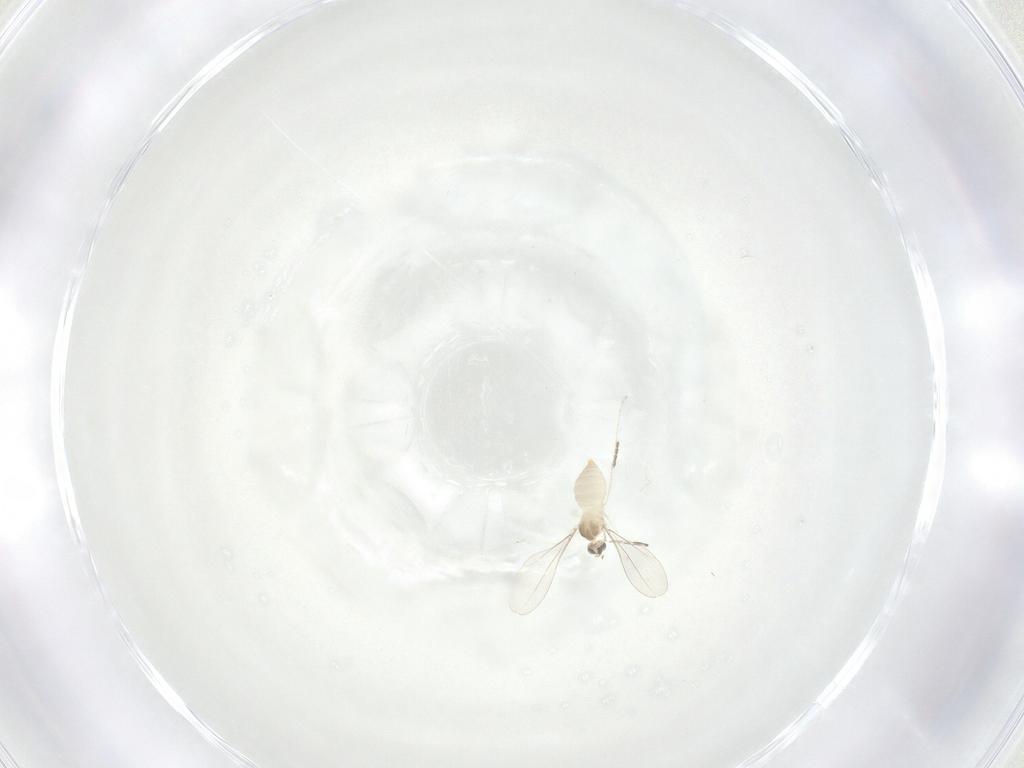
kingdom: Animalia
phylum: Arthropoda
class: Insecta
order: Diptera
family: Cecidomyiidae
